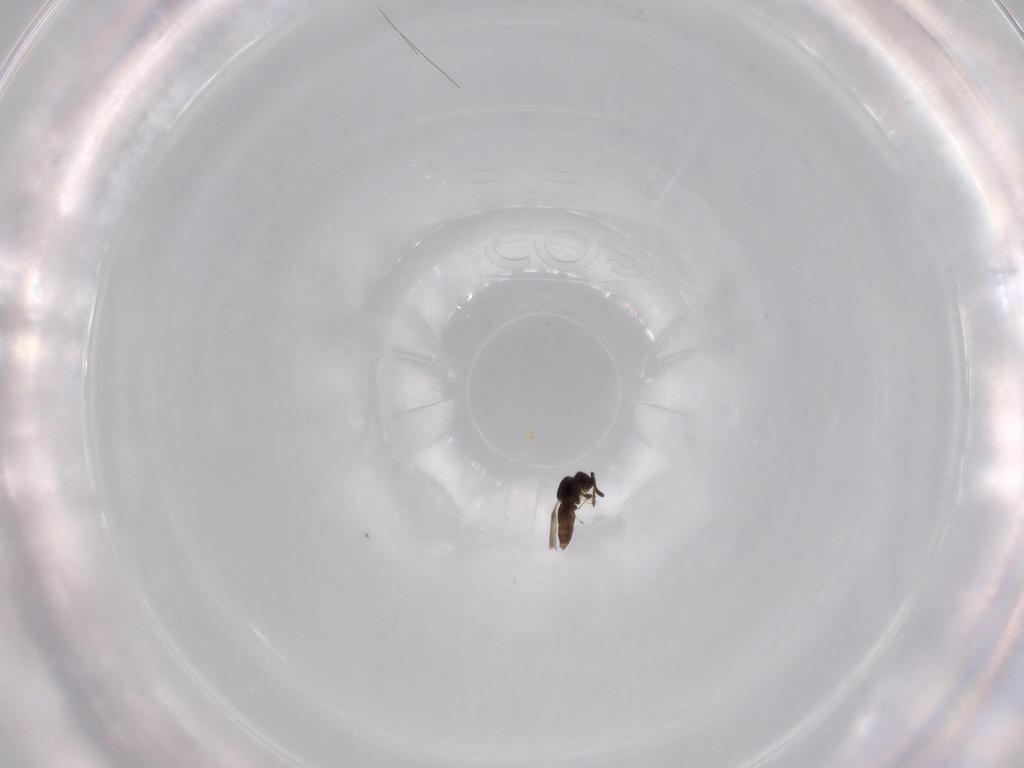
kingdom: Animalia
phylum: Arthropoda
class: Insecta
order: Hymenoptera
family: Ceraphronidae
